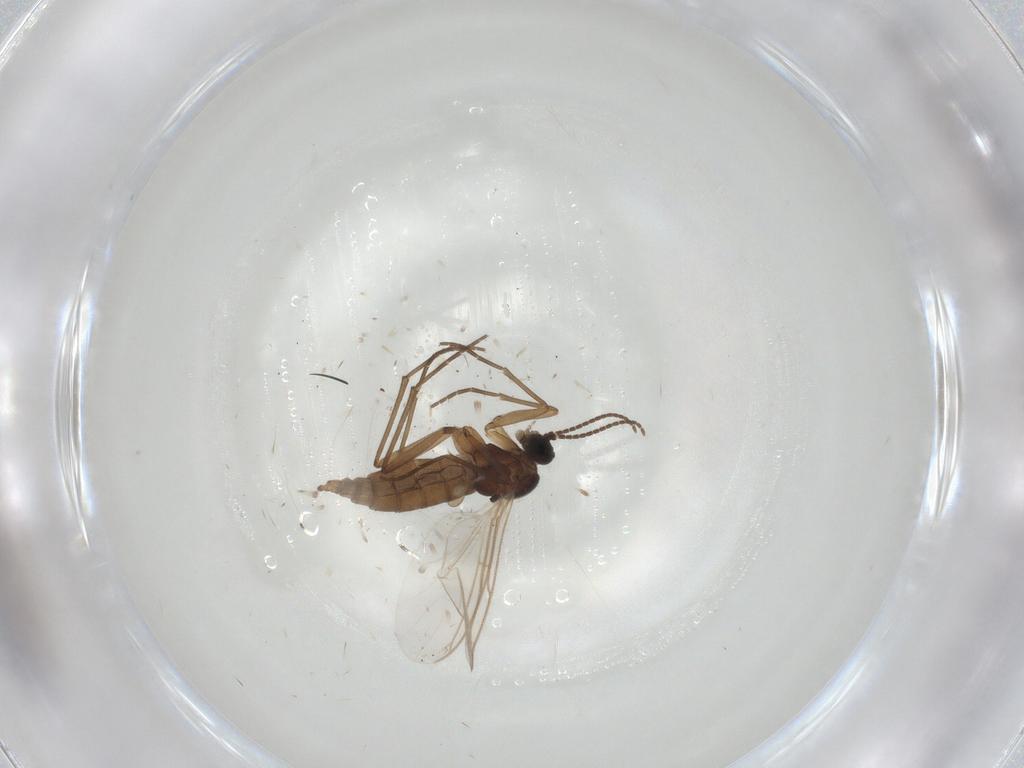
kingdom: Animalia
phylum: Arthropoda
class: Insecta
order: Diptera
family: Sciaridae
